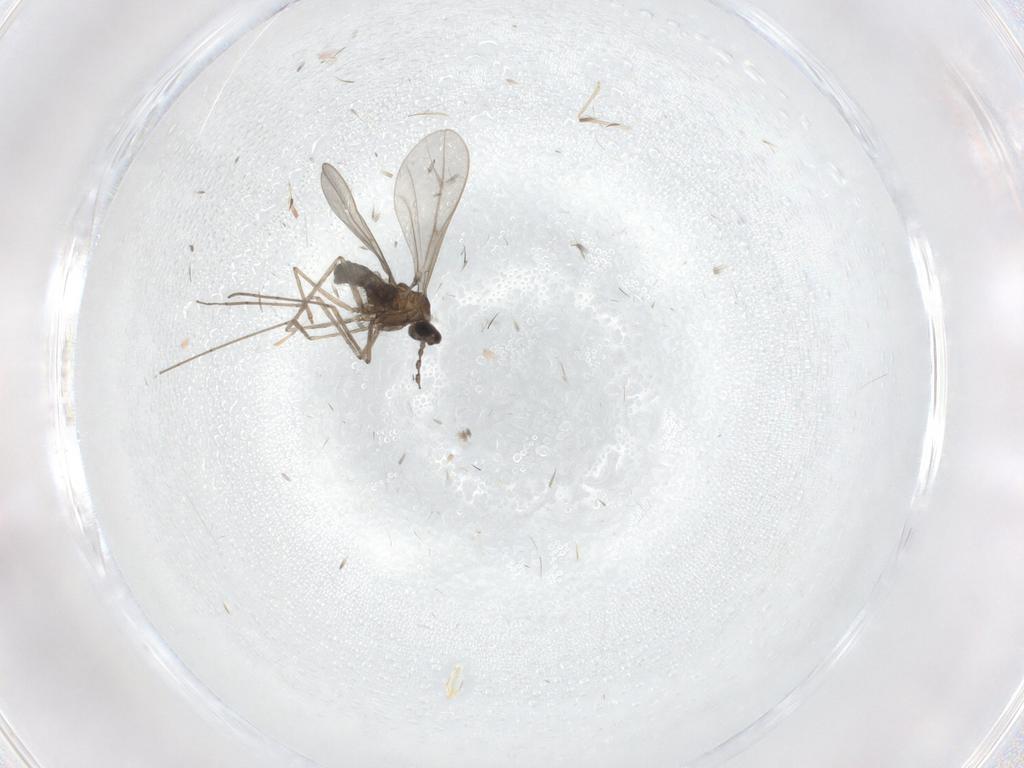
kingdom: Animalia
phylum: Arthropoda
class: Insecta
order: Diptera
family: Cecidomyiidae
